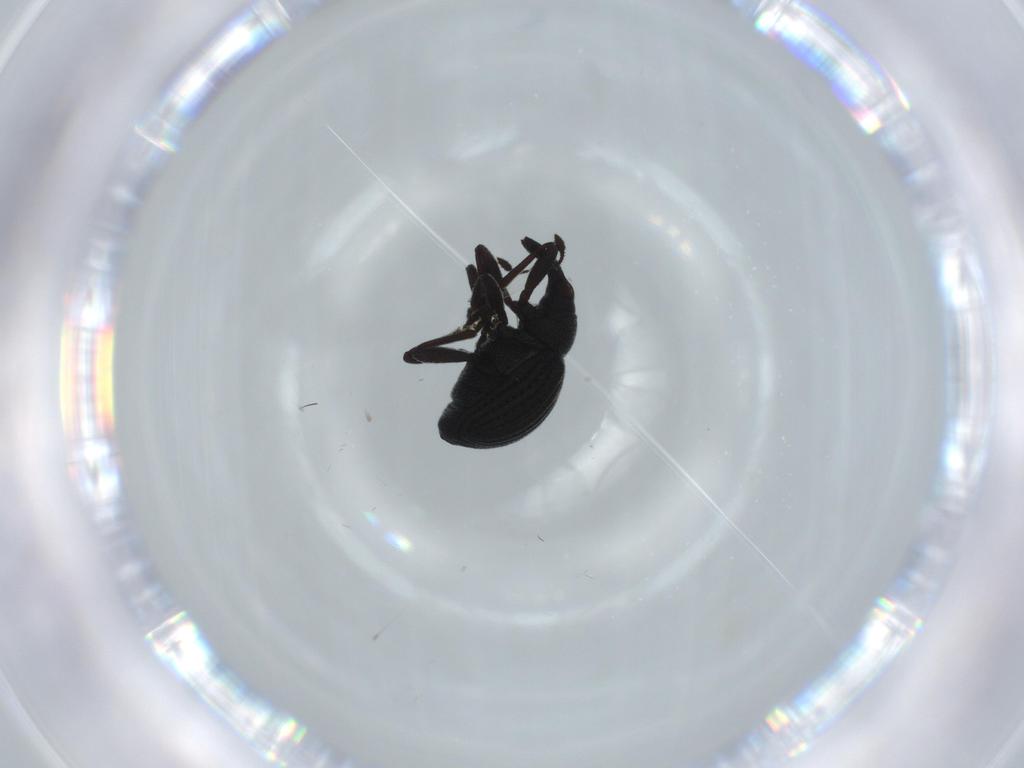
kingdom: Animalia
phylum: Arthropoda
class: Insecta
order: Coleoptera
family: Brentidae
